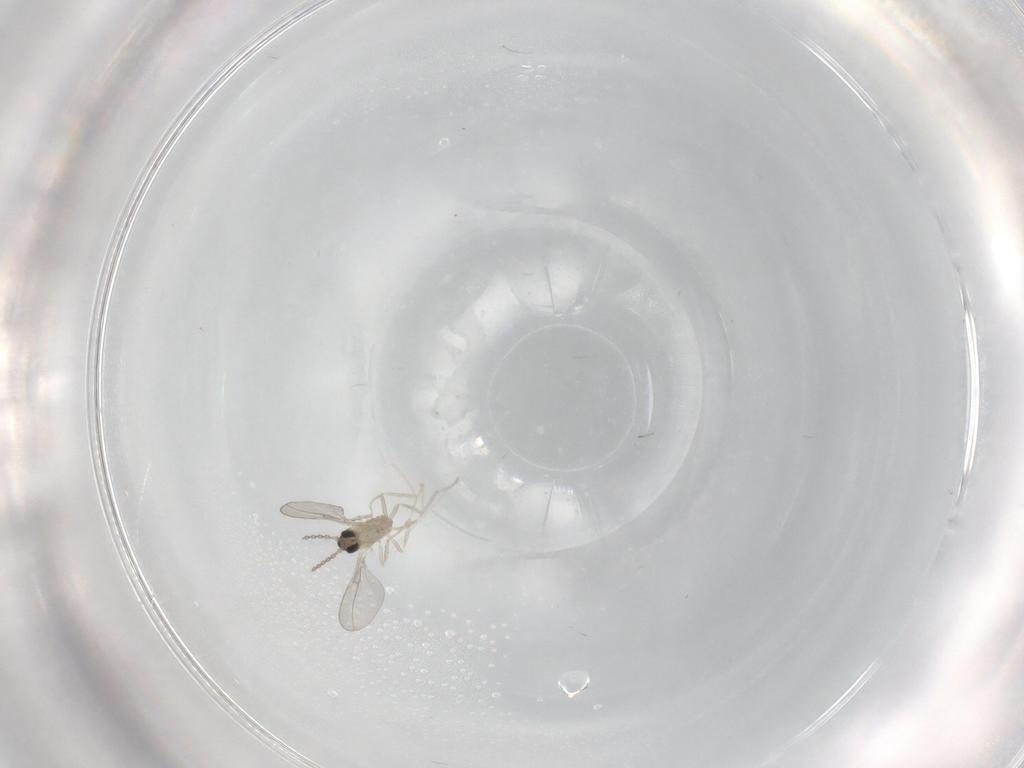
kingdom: Animalia
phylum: Arthropoda
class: Insecta
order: Diptera
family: Cecidomyiidae
